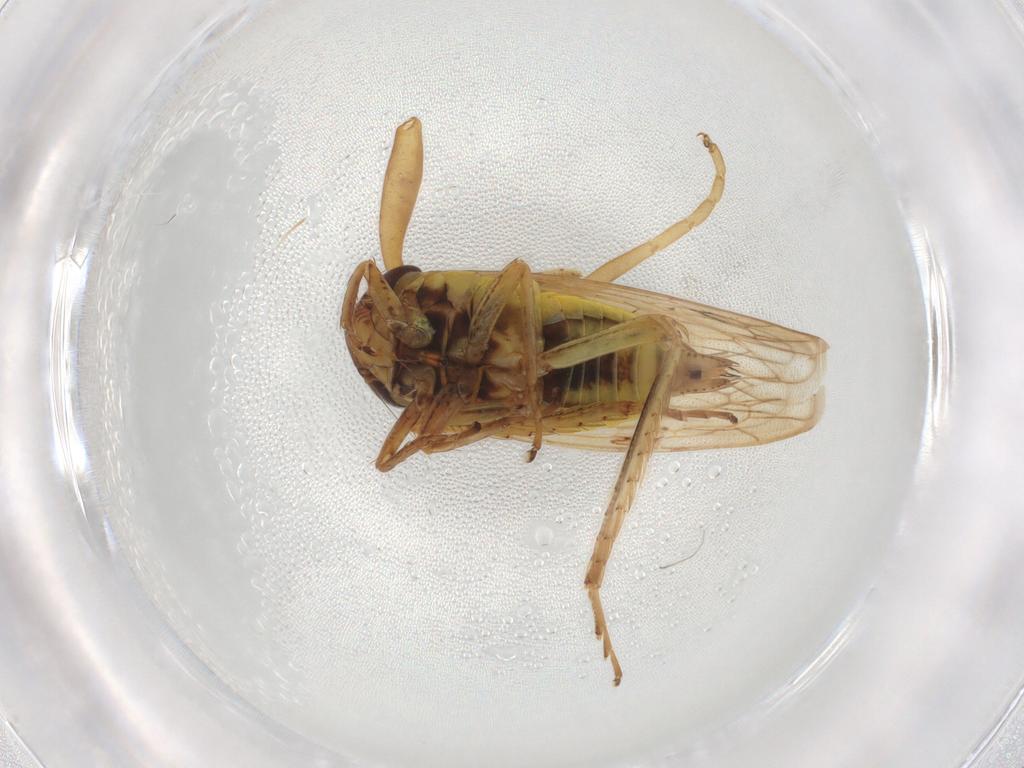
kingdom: Animalia
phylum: Arthropoda
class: Insecta
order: Hemiptera
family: Cicadellidae
